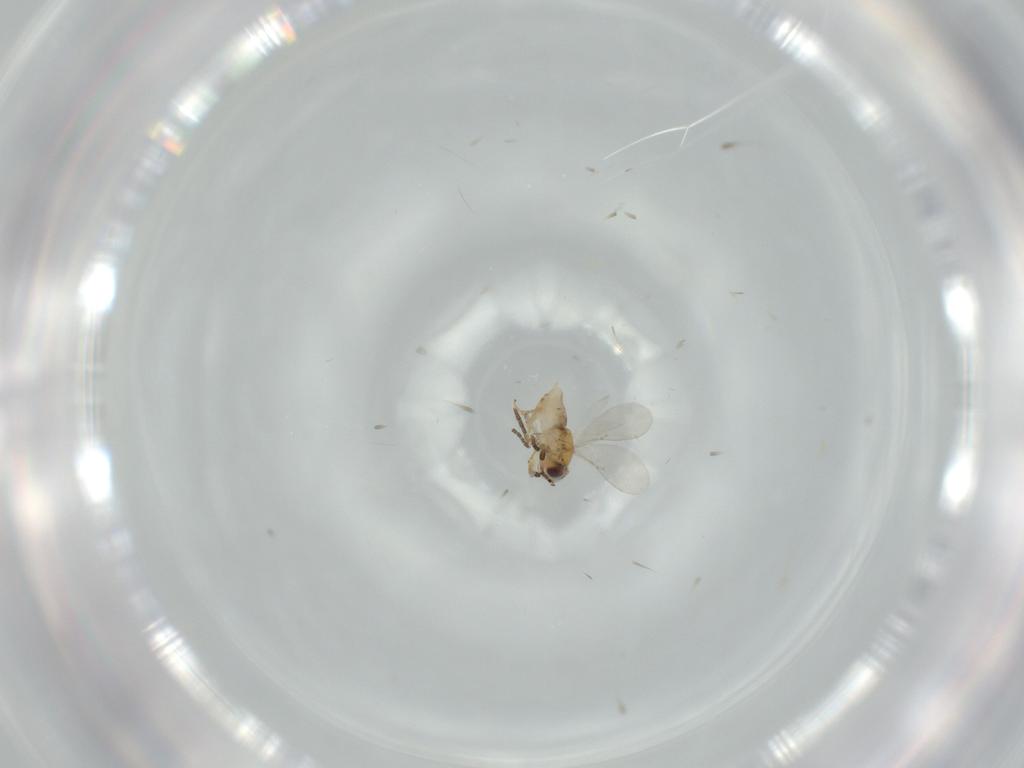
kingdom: Animalia
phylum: Arthropoda
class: Insecta
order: Hymenoptera
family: Encyrtidae
